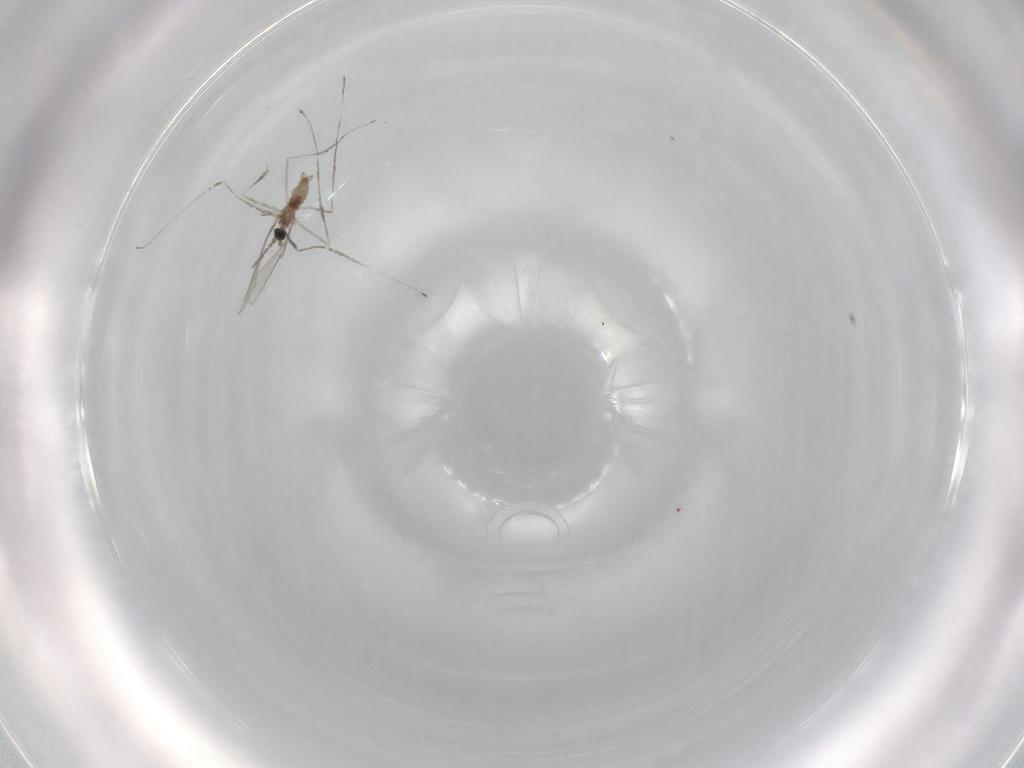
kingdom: Animalia
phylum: Arthropoda
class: Insecta
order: Diptera
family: Cecidomyiidae
